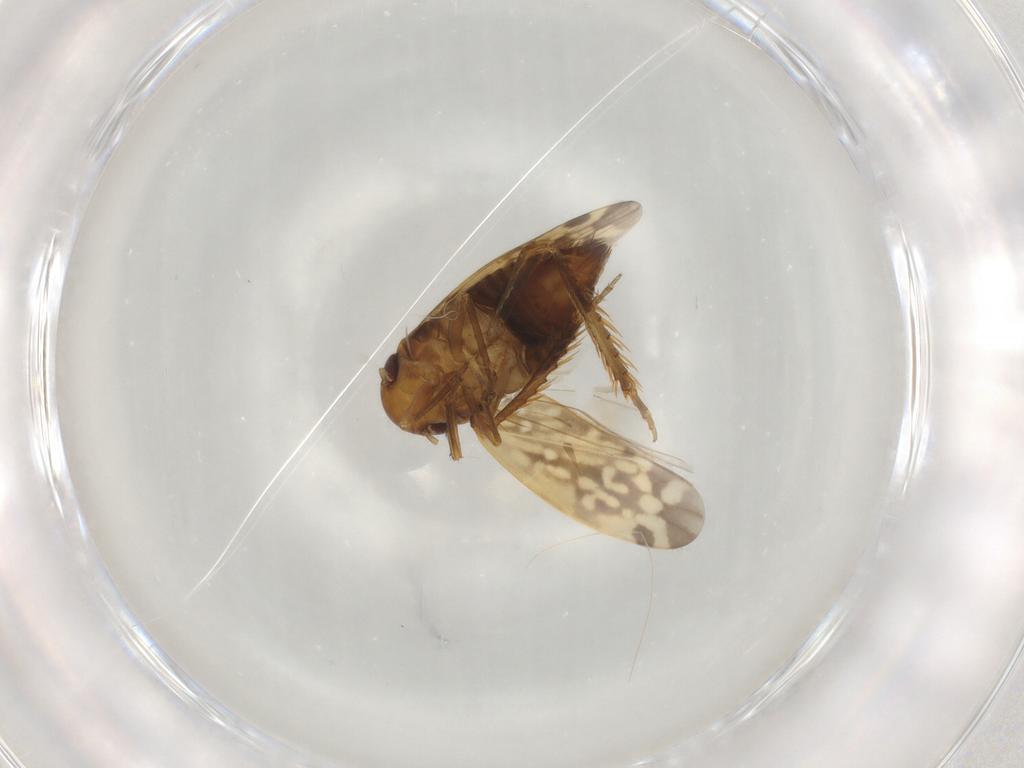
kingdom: Animalia
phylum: Arthropoda
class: Insecta
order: Hemiptera
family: Cicadellidae
